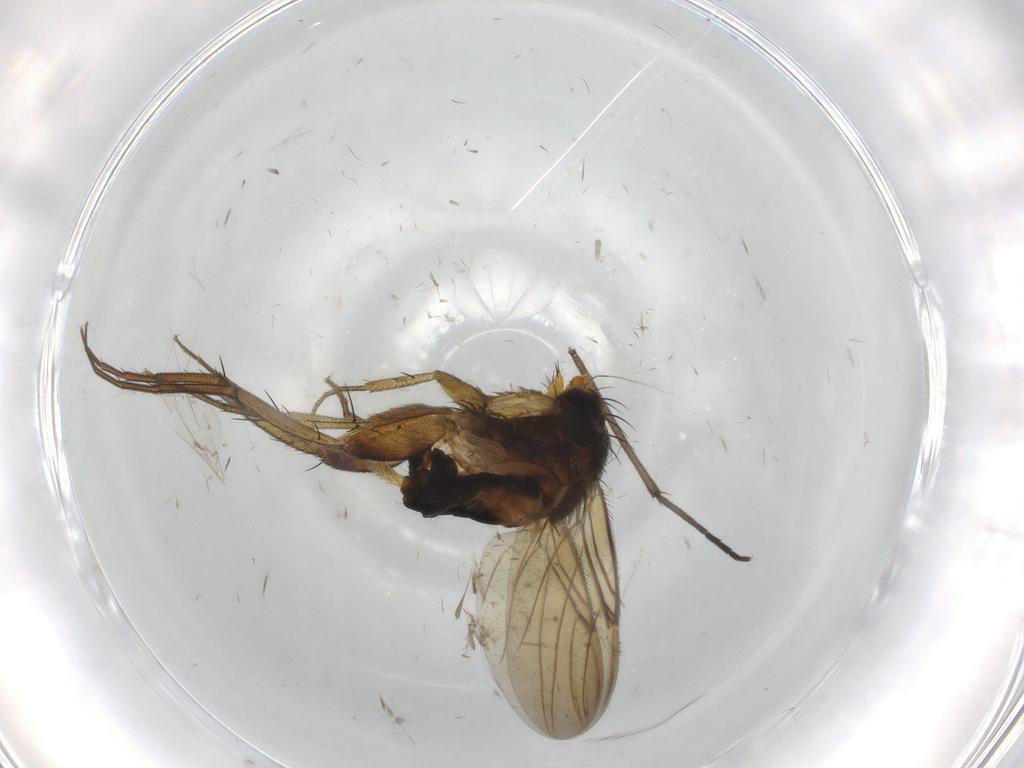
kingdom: Animalia
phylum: Arthropoda
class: Insecta
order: Diptera
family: Phoridae
